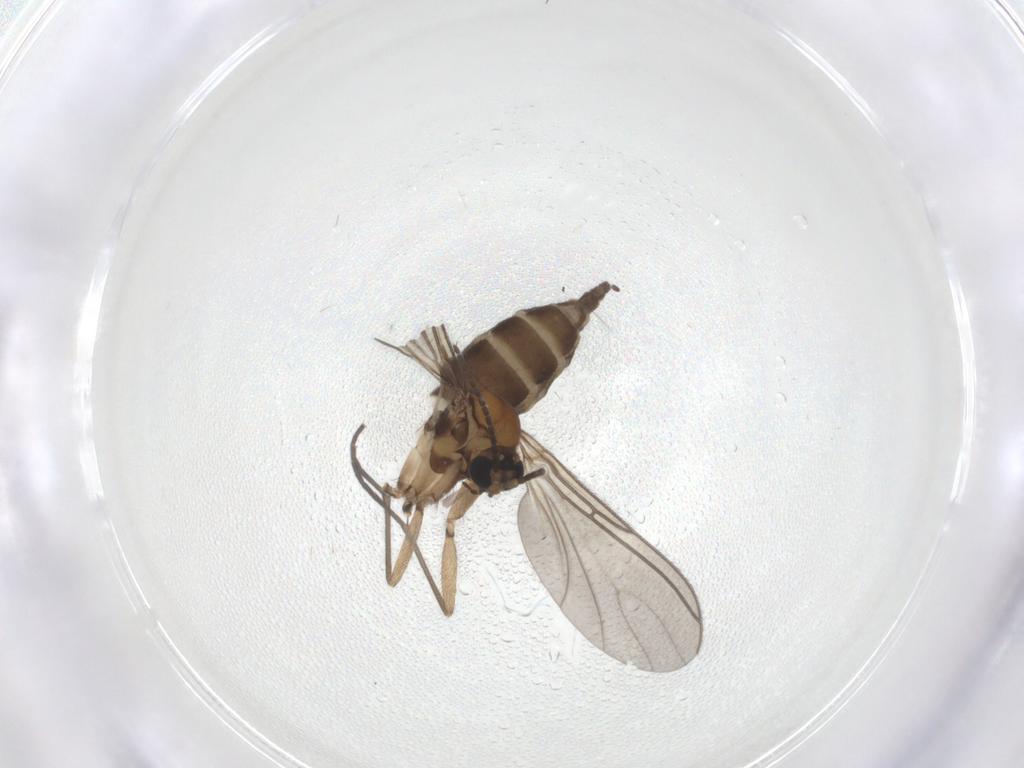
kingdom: Animalia
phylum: Arthropoda
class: Insecta
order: Diptera
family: Sciaridae
